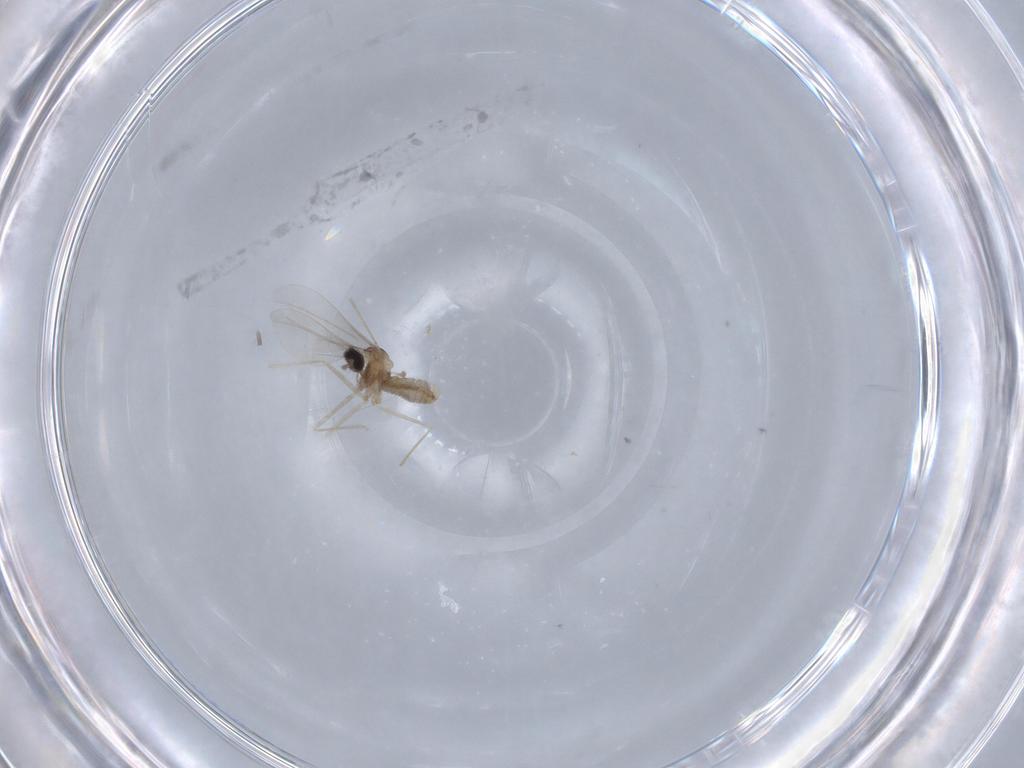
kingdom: Animalia
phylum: Arthropoda
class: Insecta
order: Diptera
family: Cecidomyiidae
